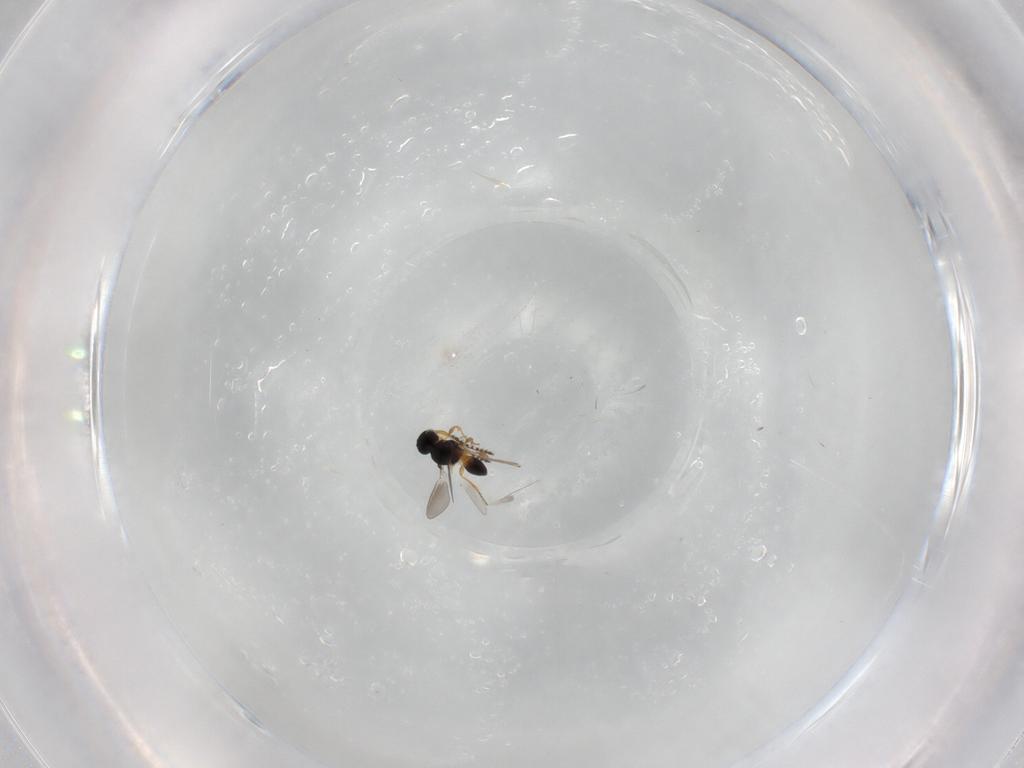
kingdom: Animalia
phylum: Arthropoda
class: Insecta
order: Hymenoptera
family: Platygastridae
